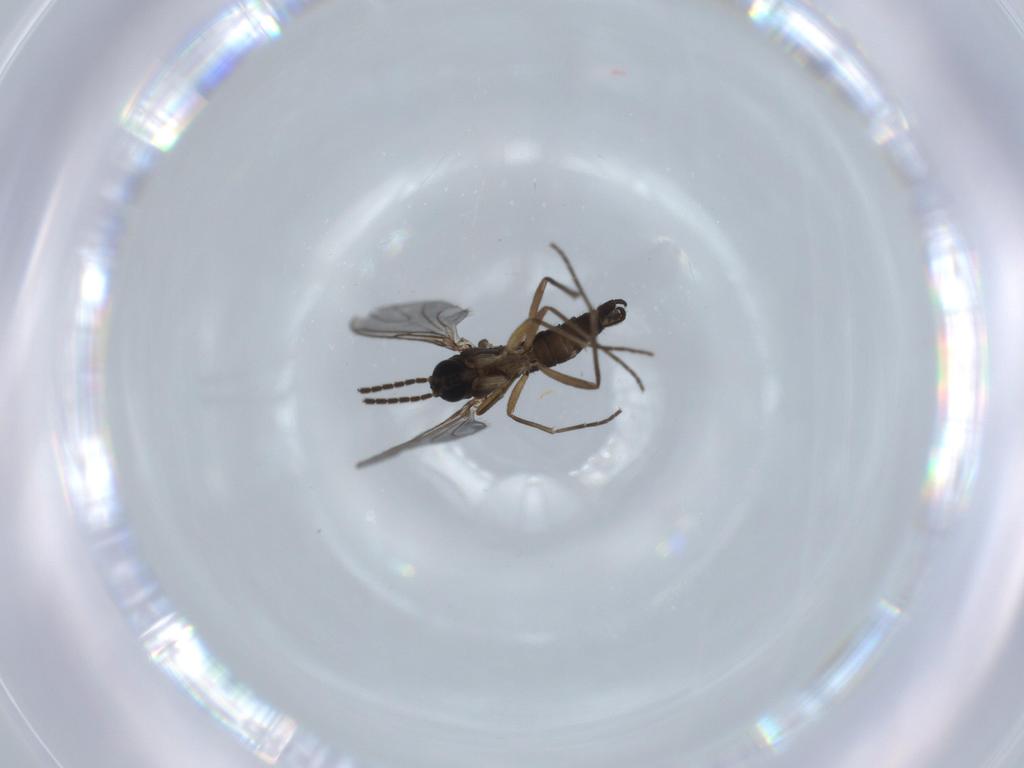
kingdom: Animalia
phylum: Arthropoda
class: Insecta
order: Diptera
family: Sciaridae
